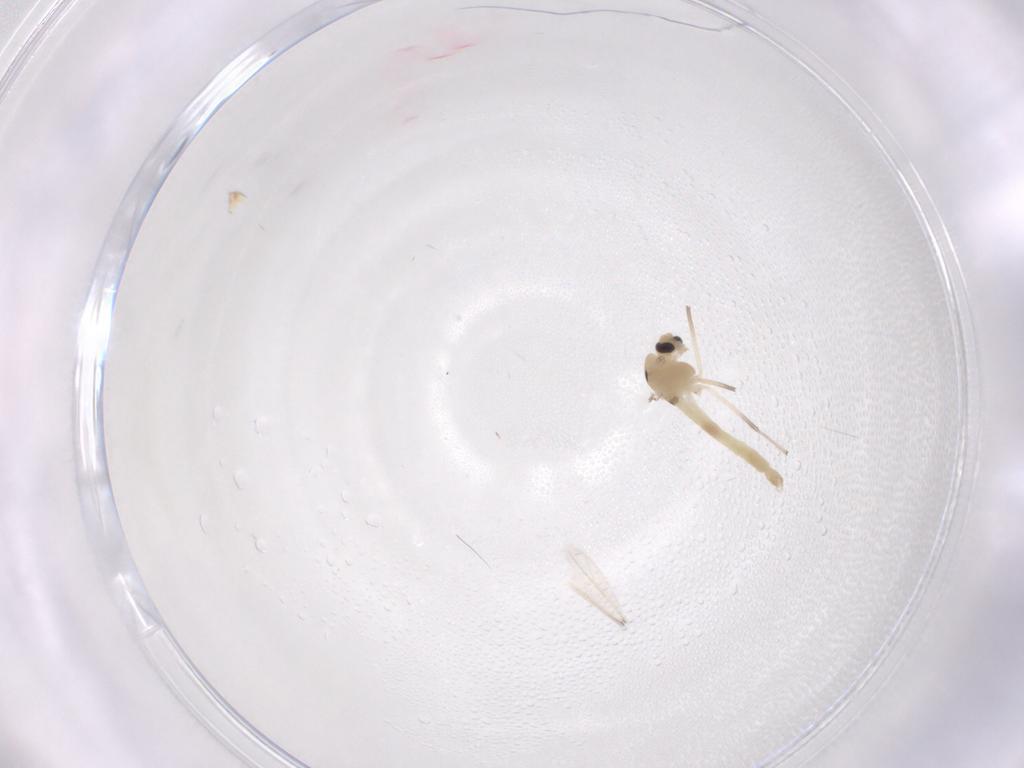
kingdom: Animalia
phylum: Arthropoda
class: Insecta
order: Diptera
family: Chironomidae
